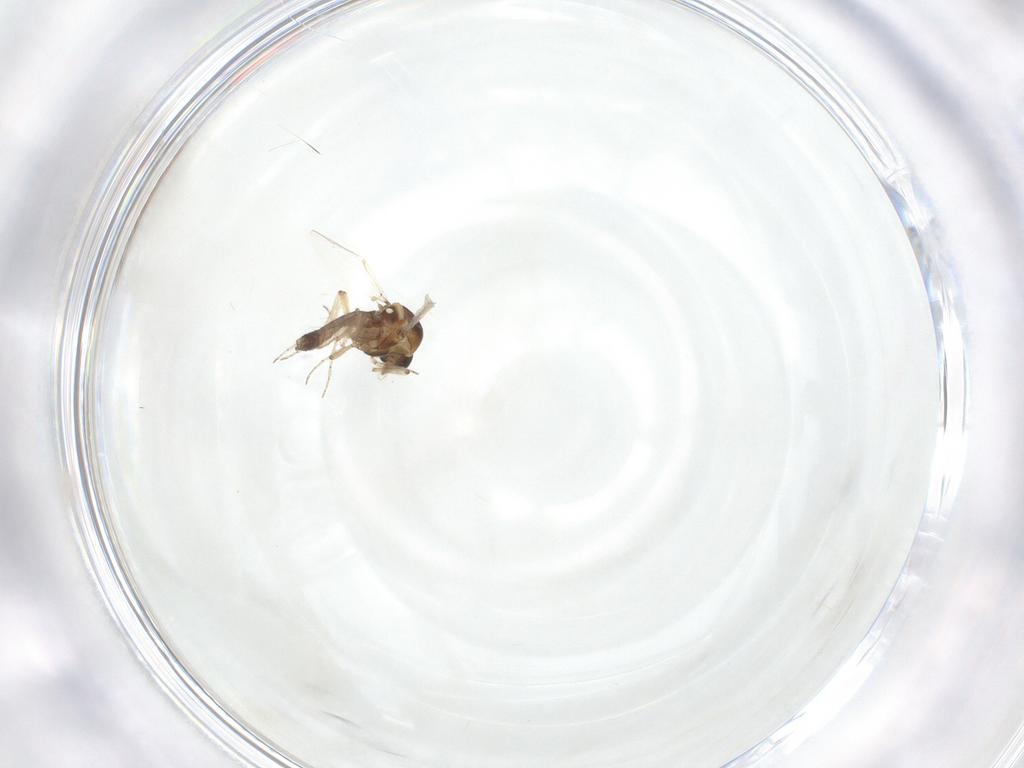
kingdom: Animalia
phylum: Arthropoda
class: Insecta
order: Diptera
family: Ceratopogonidae
